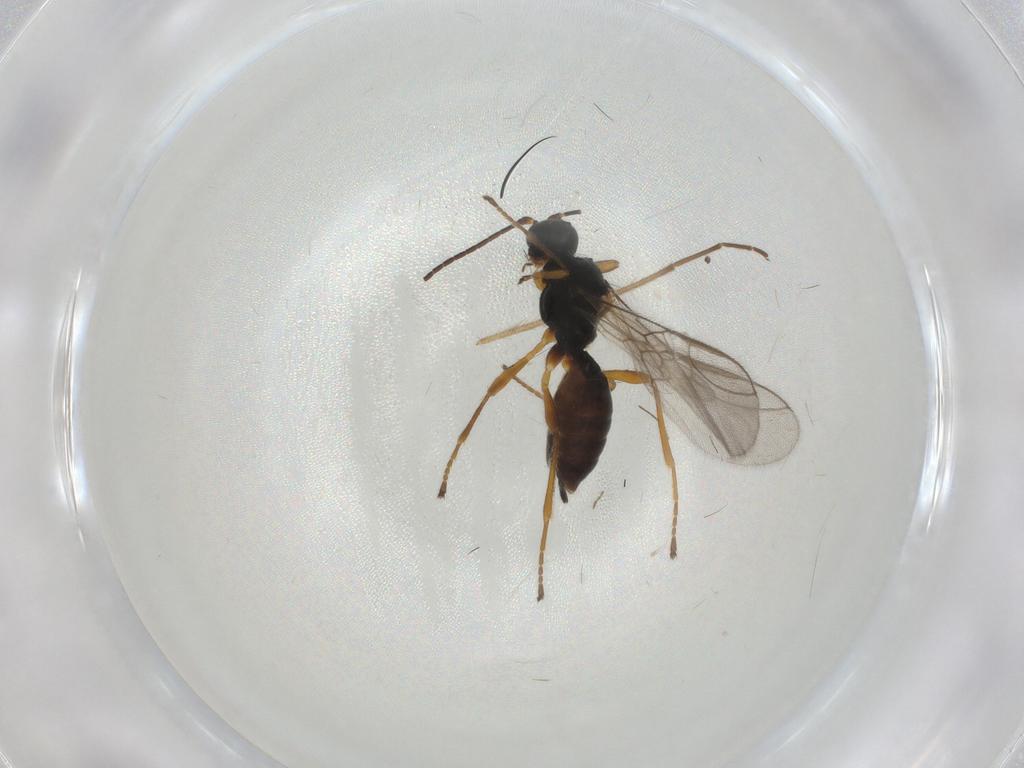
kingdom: Animalia
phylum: Arthropoda
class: Insecta
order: Hymenoptera
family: Braconidae
